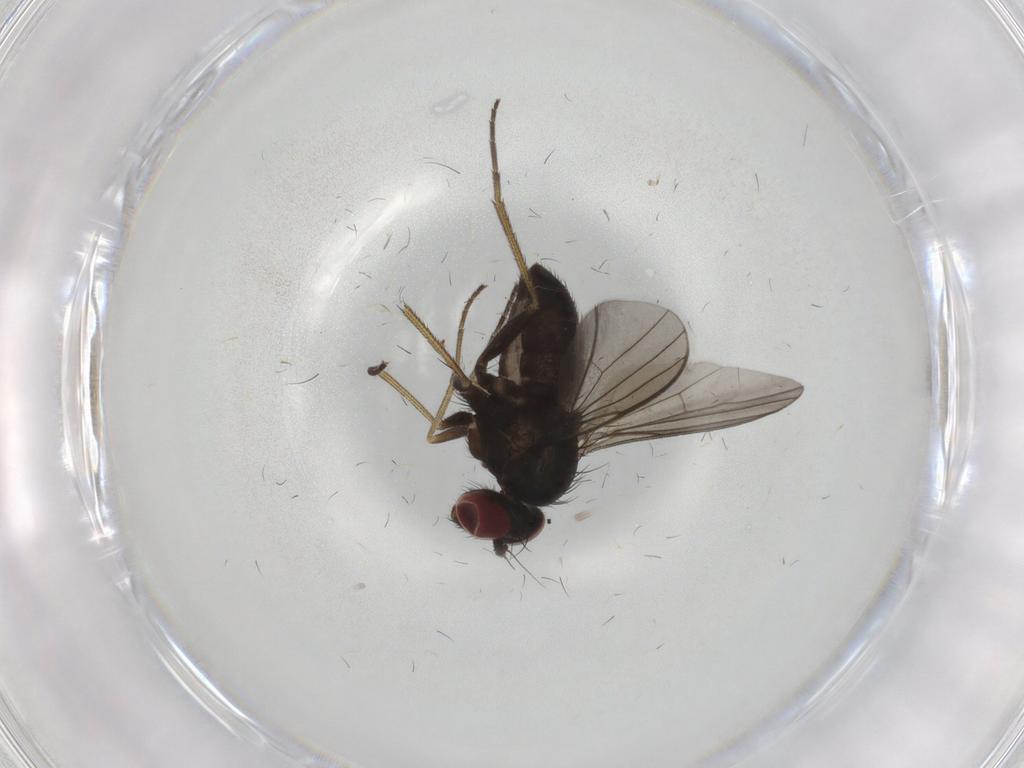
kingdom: Animalia
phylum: Arthropoda
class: Insecta
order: Diptera
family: Dolichopodidae
